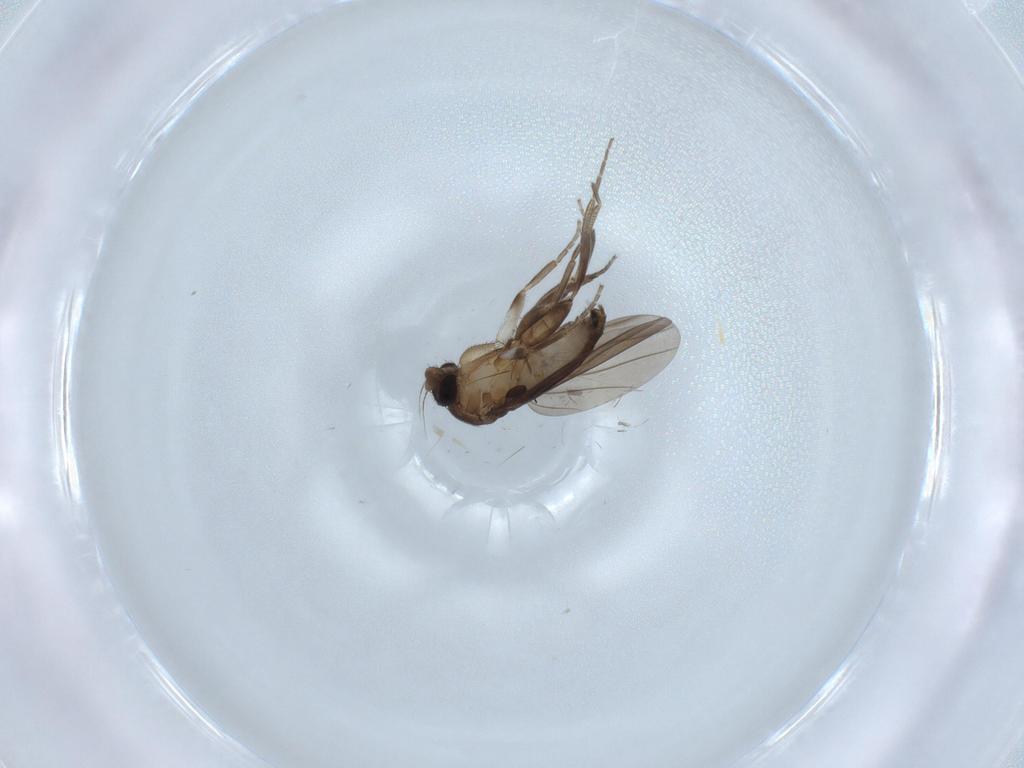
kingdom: Animalia
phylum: Arthropoda
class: Insecta
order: Diptera
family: Cecidomyiidae
